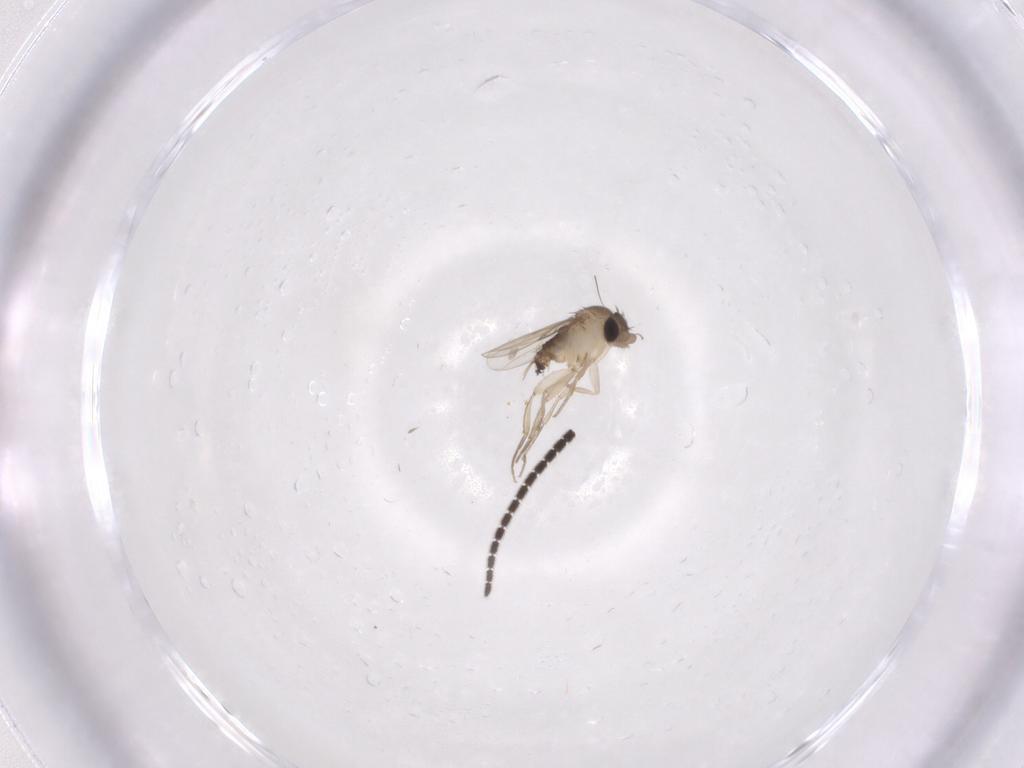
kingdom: Animalia
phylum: Arthropoda
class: Insecta
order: Diptera
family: Phoridae
